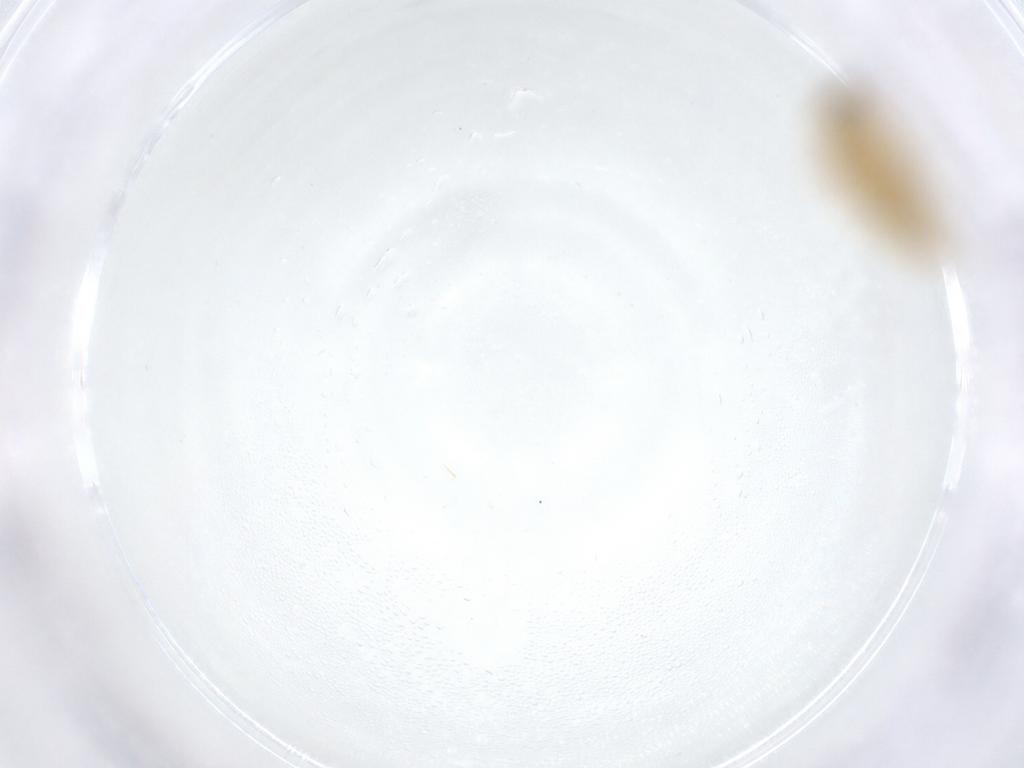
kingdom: Animalia
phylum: Arthropoda
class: Insecta
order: Lepidoptera
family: Nepticulidae
